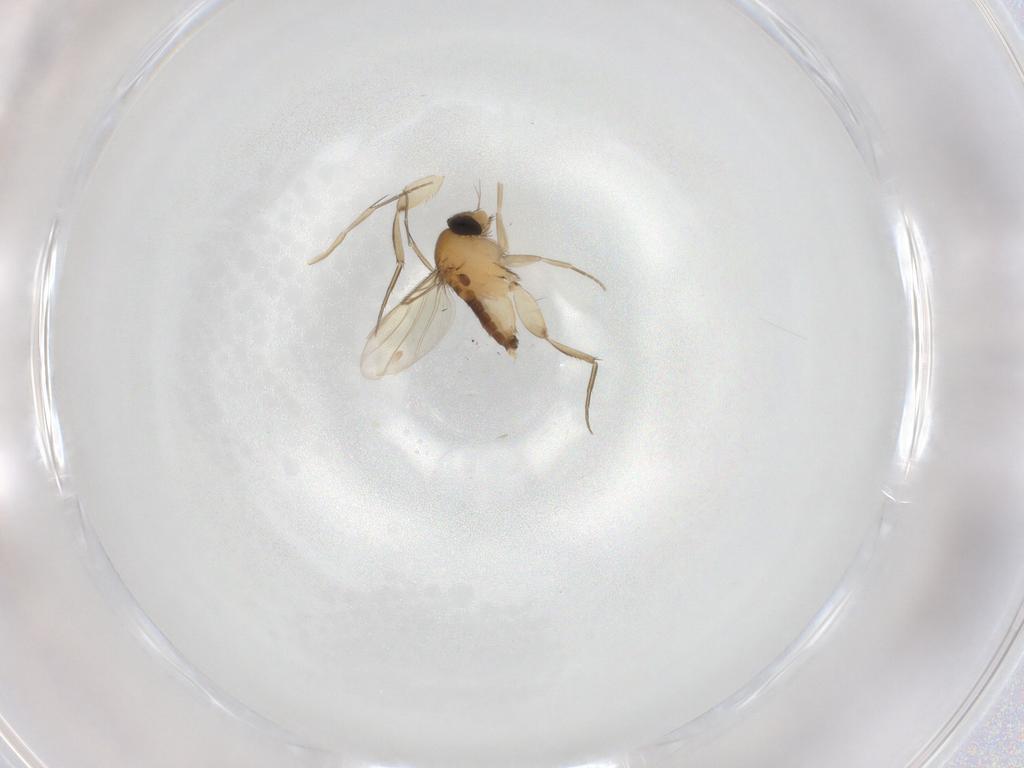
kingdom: Animalia
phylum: Arthropoda
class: Insecta
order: Diptera
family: Phoridae
